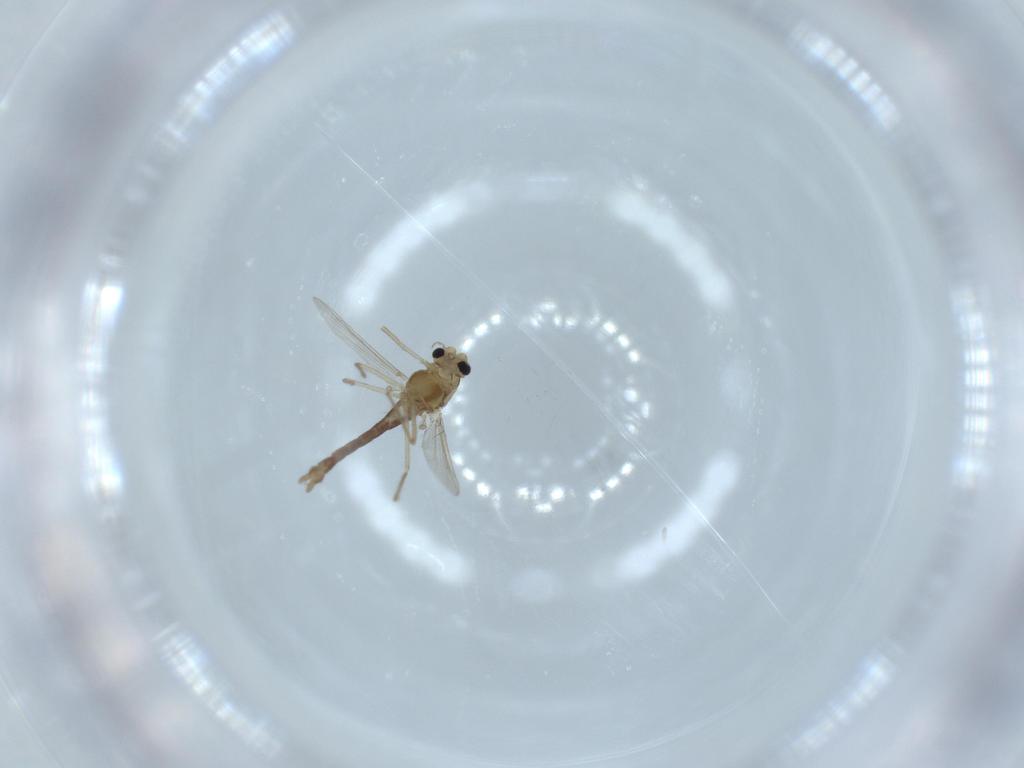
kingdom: Animalia
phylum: Arthropoda
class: Insecta
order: Diptera
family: Chironomidae
